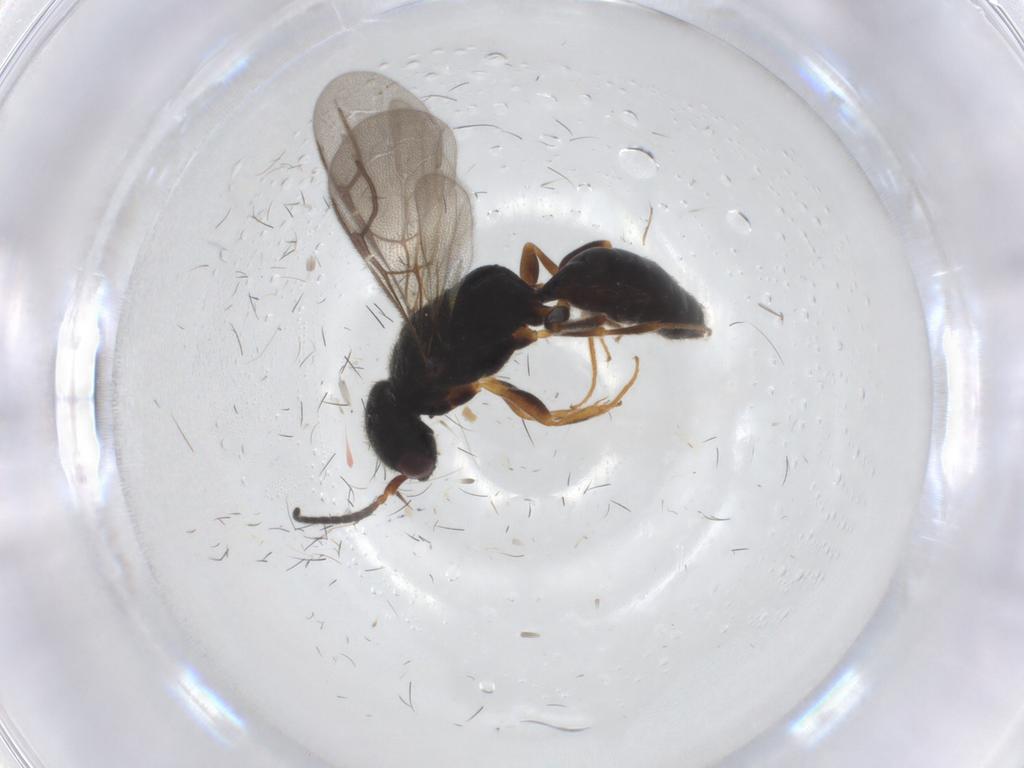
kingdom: Animalia
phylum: Arthropoda
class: Insecta
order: Hymenoptera
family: Bethylidae
